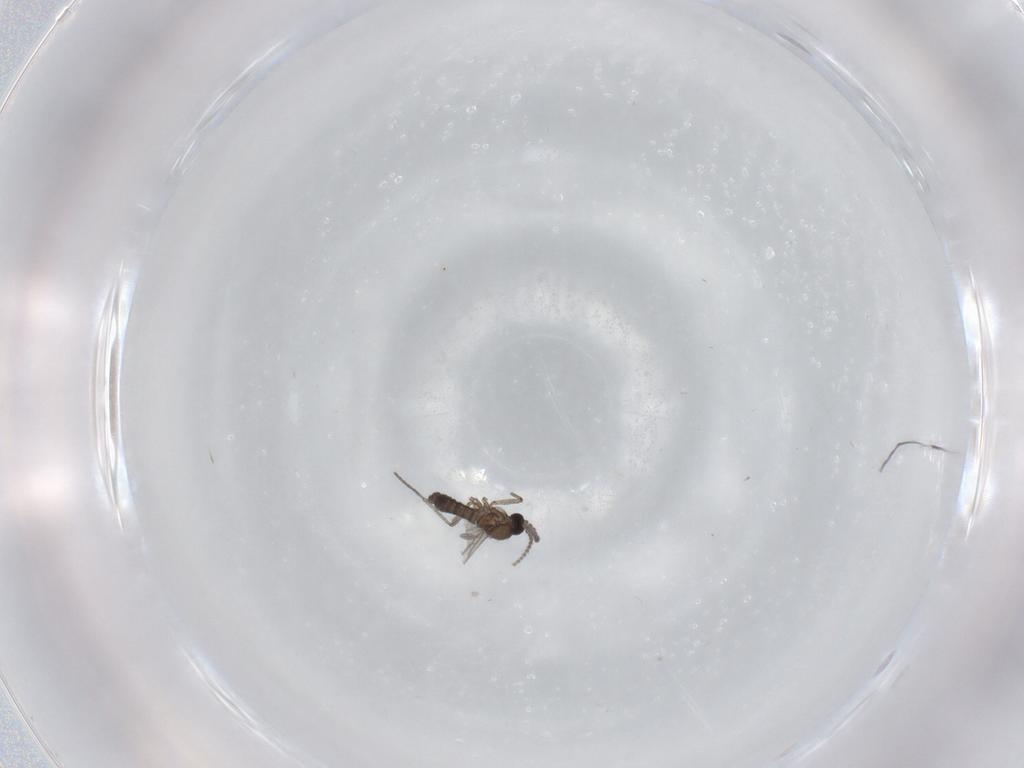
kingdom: Animalia
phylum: Arthropoda
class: Insecta
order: Diptera
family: Sciaridae
